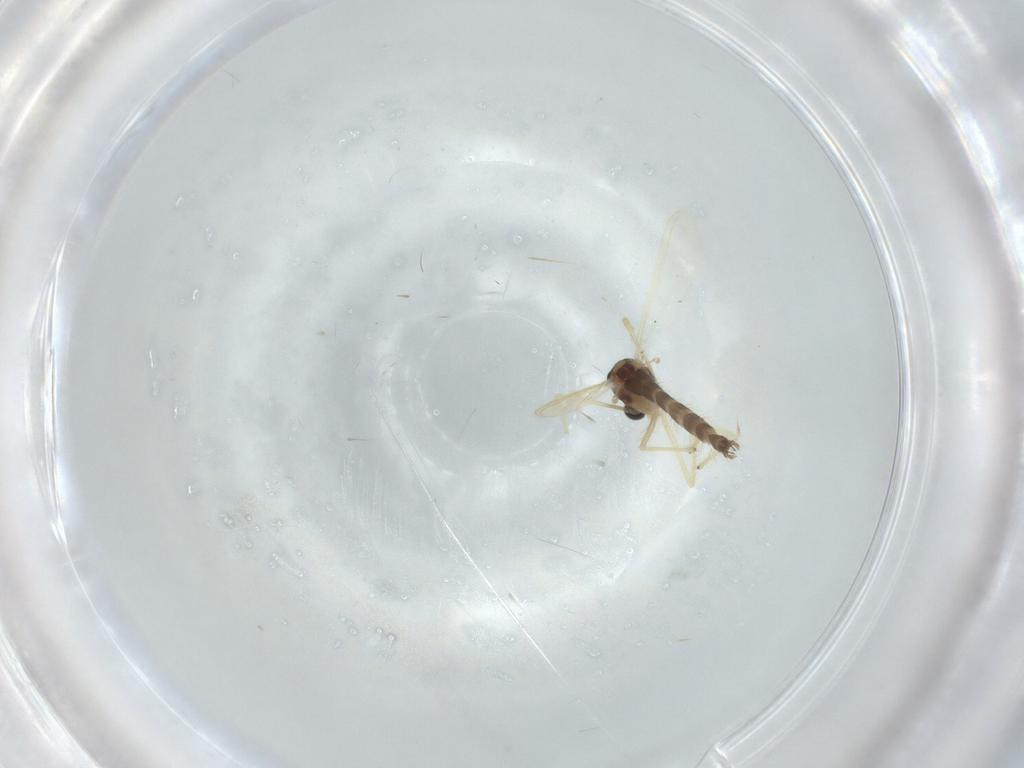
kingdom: Animalia
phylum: Arthropoda
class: Insecta
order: Diptera
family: Chironomidae
